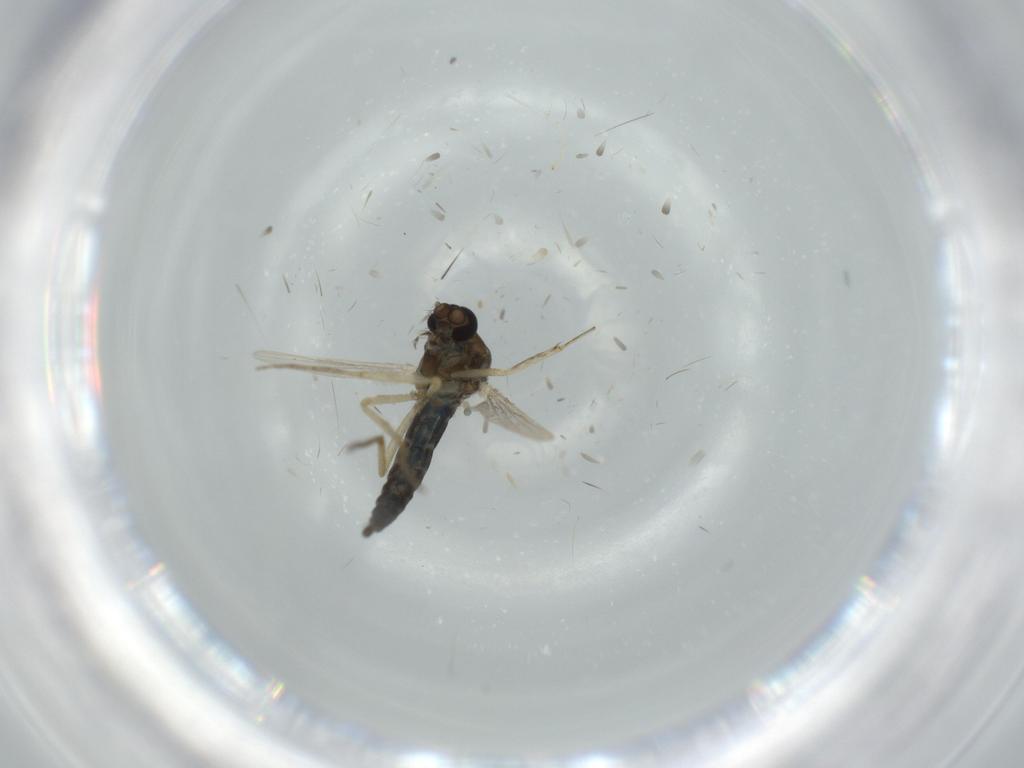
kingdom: Animalia
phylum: Arthropoda
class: Insecta
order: Diptera
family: Ceratopogonidae
